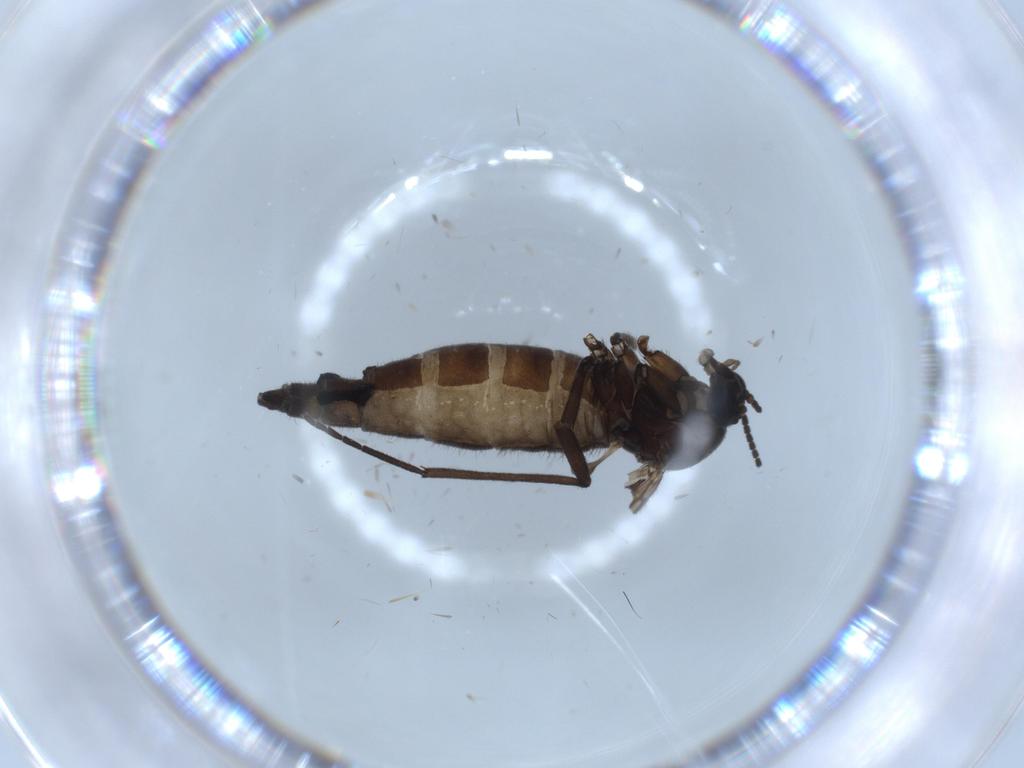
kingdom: Animalia
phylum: Arthropoda
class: Insecta
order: Diptera
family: Sciaridae
